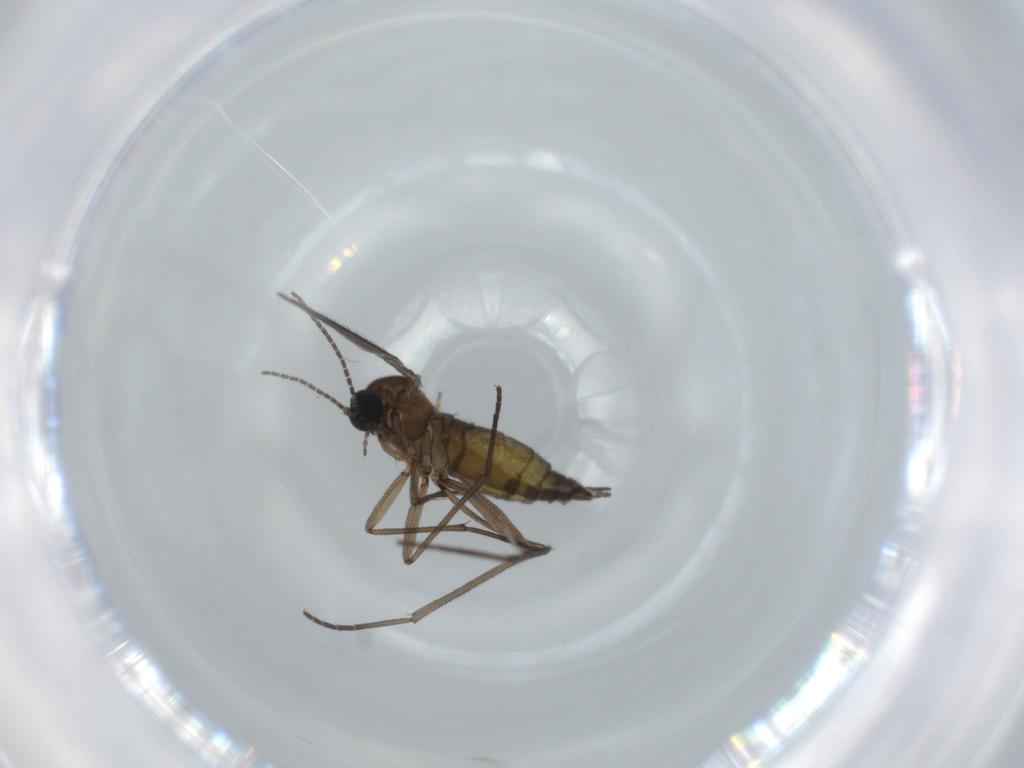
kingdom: Animalia
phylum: Arthropoda
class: Insecta
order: Diptera
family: Sciaridae
